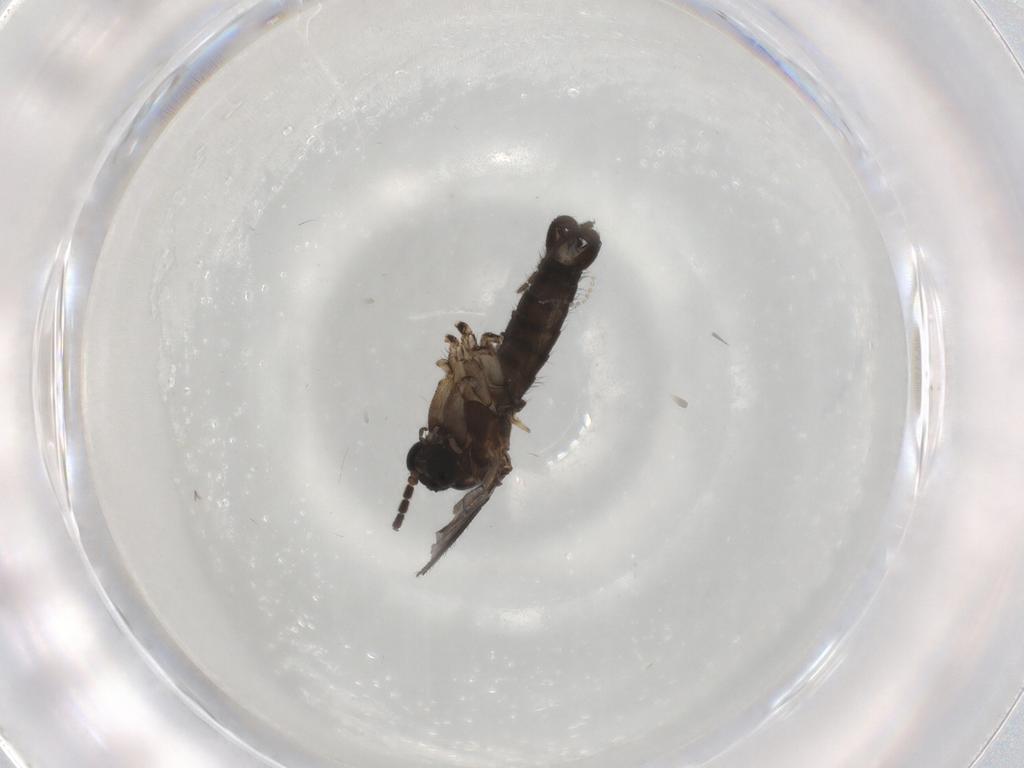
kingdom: Animalia
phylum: Arthropoda
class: Insecta
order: Diptera
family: Sciaridae
